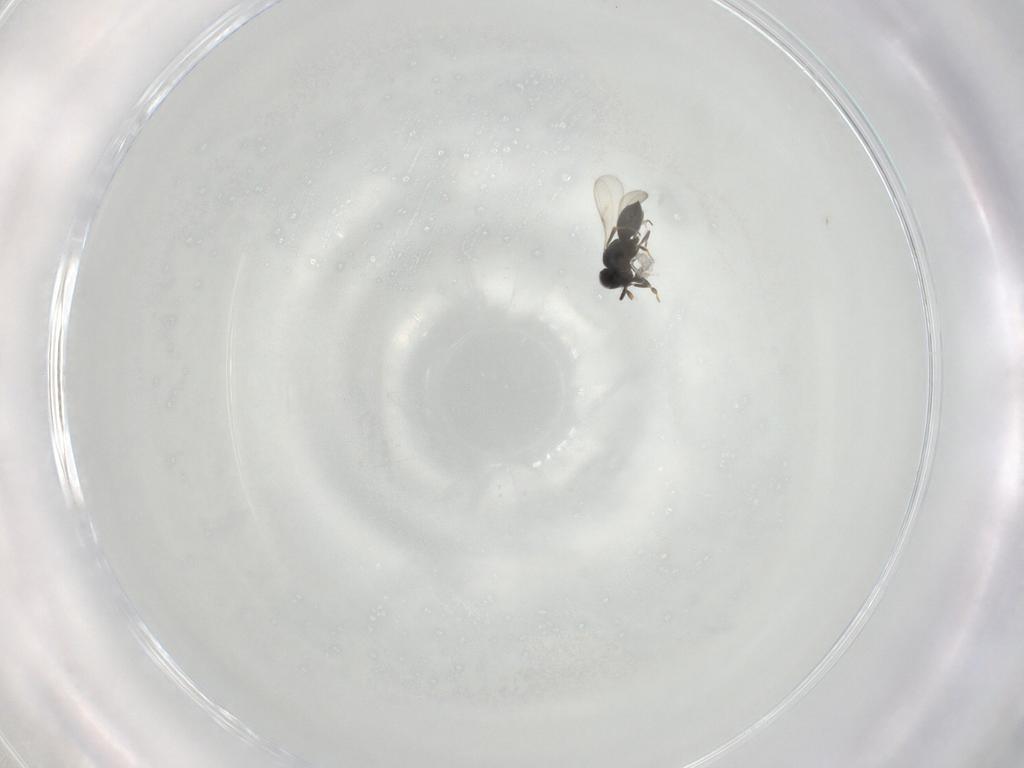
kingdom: Animalia
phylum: Arthropoda
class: Insecta
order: Hymenoptera
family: Scelionidae
